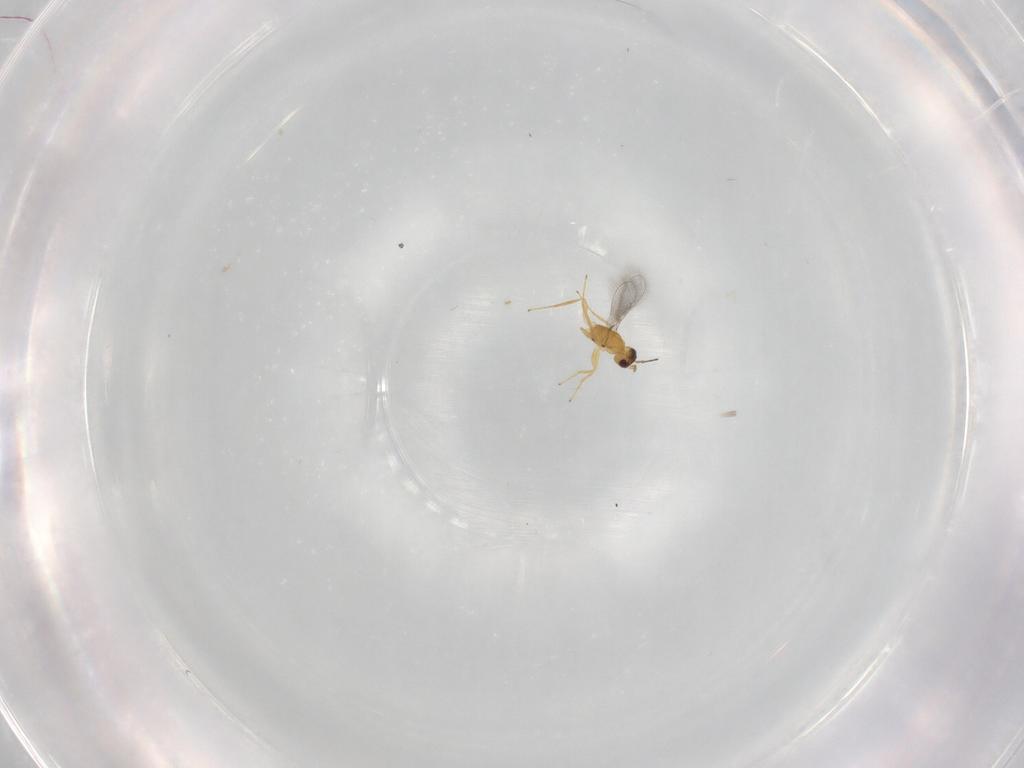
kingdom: Animalia
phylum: Arthropoda
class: Insecta
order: Hymenoptera
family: Mymaridae
